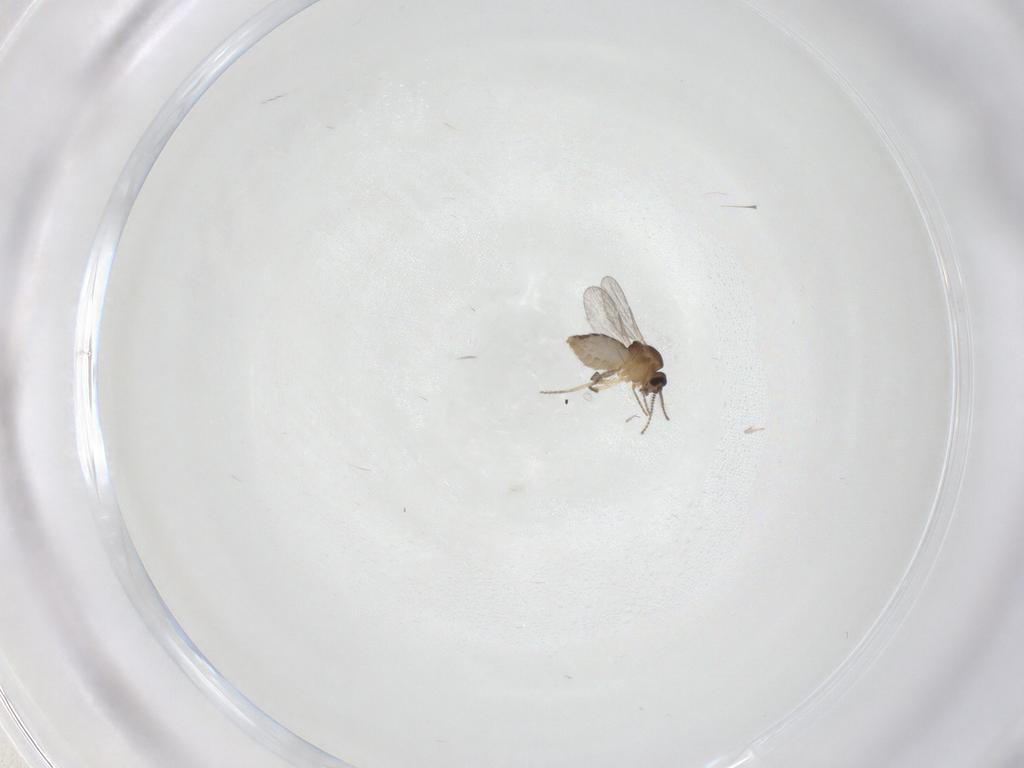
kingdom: Animalia
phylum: Arthropoda
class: Insecta
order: Diptera
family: Ceratopogonidae
